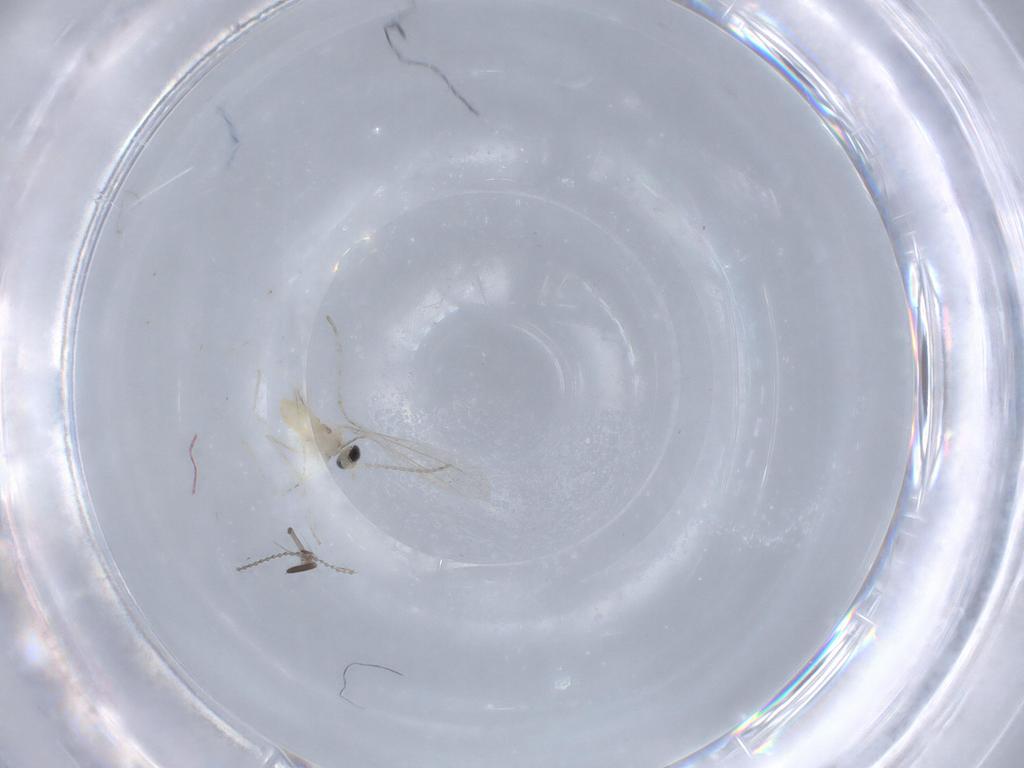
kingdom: Animalia
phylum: Arthropoda
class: Insecta
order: Diptera
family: Cecidomyiidae
